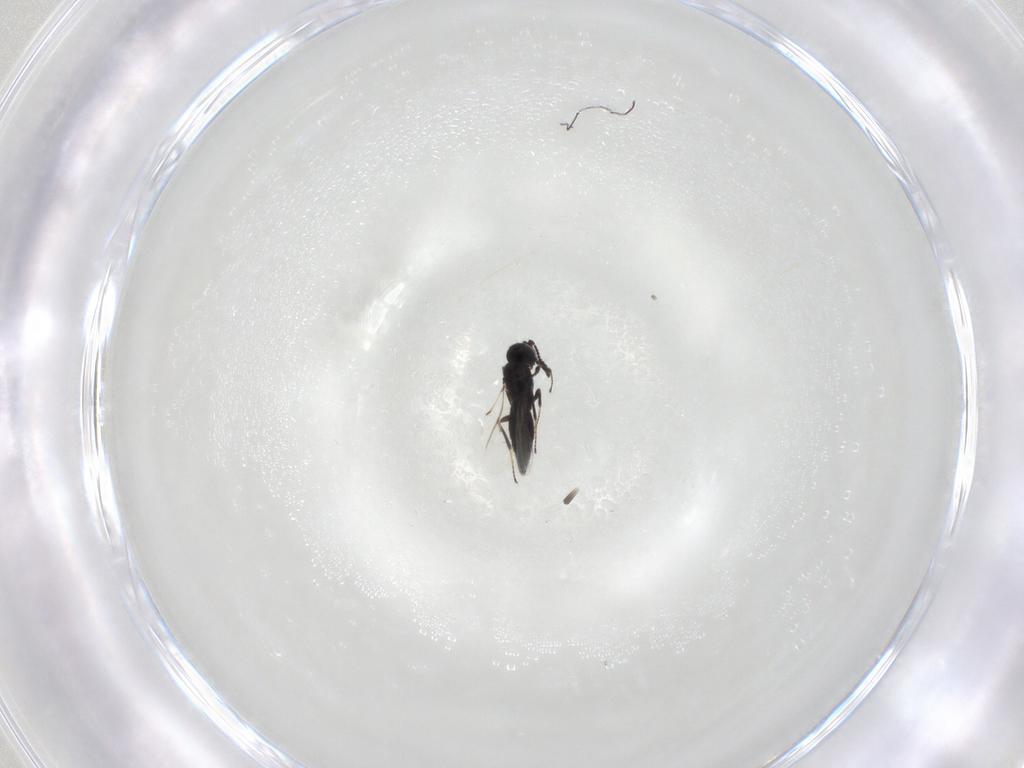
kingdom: Animalia
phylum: Arthropoda
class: Insecta
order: Hymenoptera
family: Scelionidae
